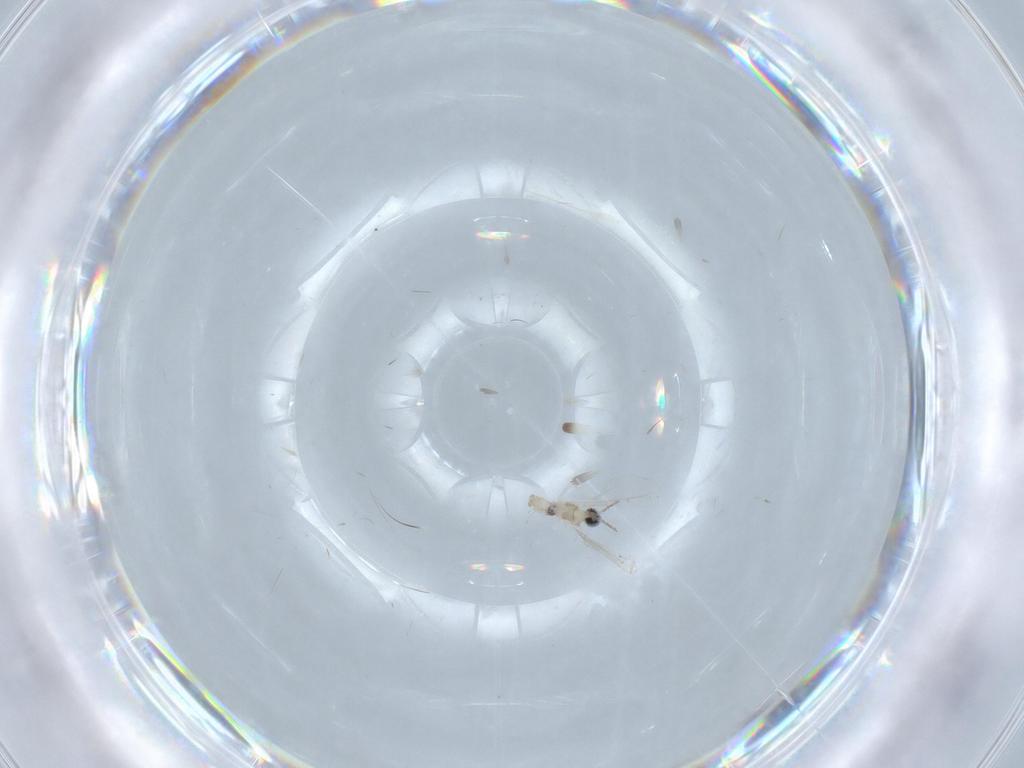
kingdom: Animalia
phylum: Arthropoda
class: Insecta
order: Diptera
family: Cecidomyiidae
